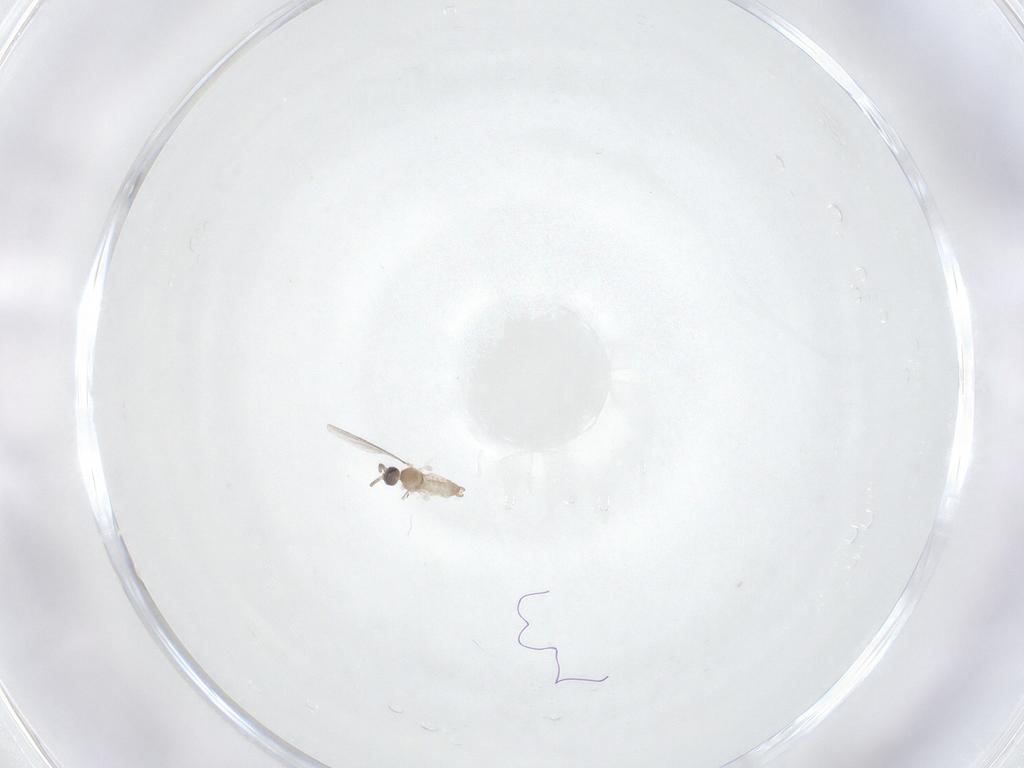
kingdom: Animalia
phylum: Arthropoda
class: Insecta
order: Diptera
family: Cecidomyiidae
